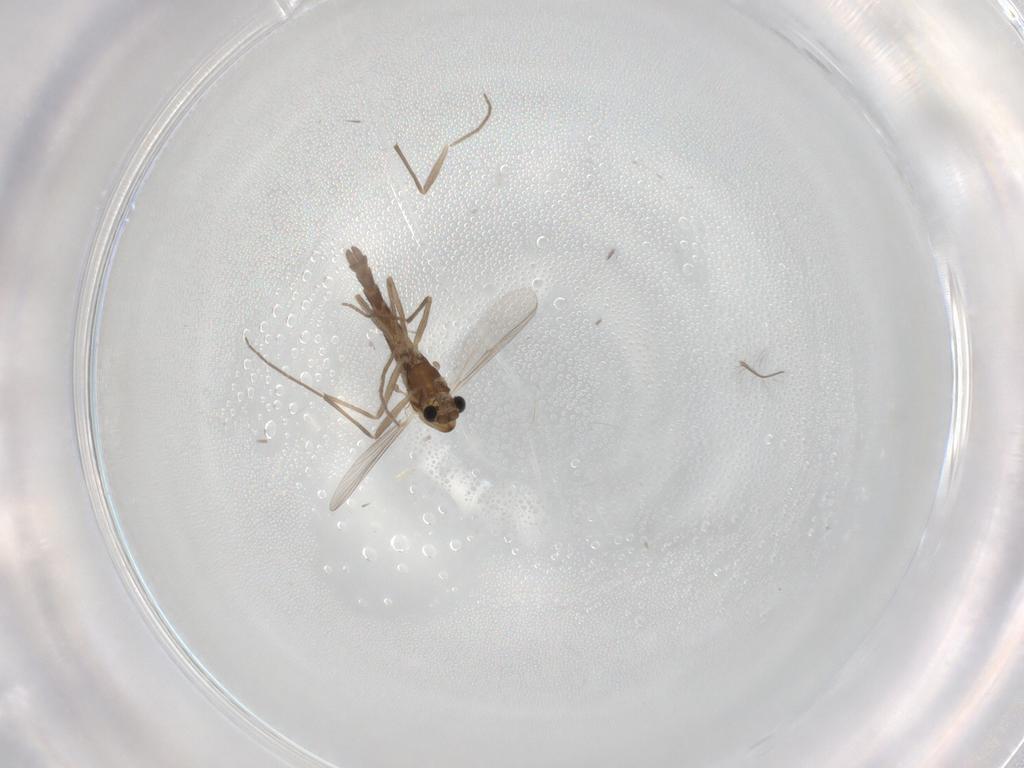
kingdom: Animalia
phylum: Arthropoda
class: Insecta
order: Diptera
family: Chironomidae
